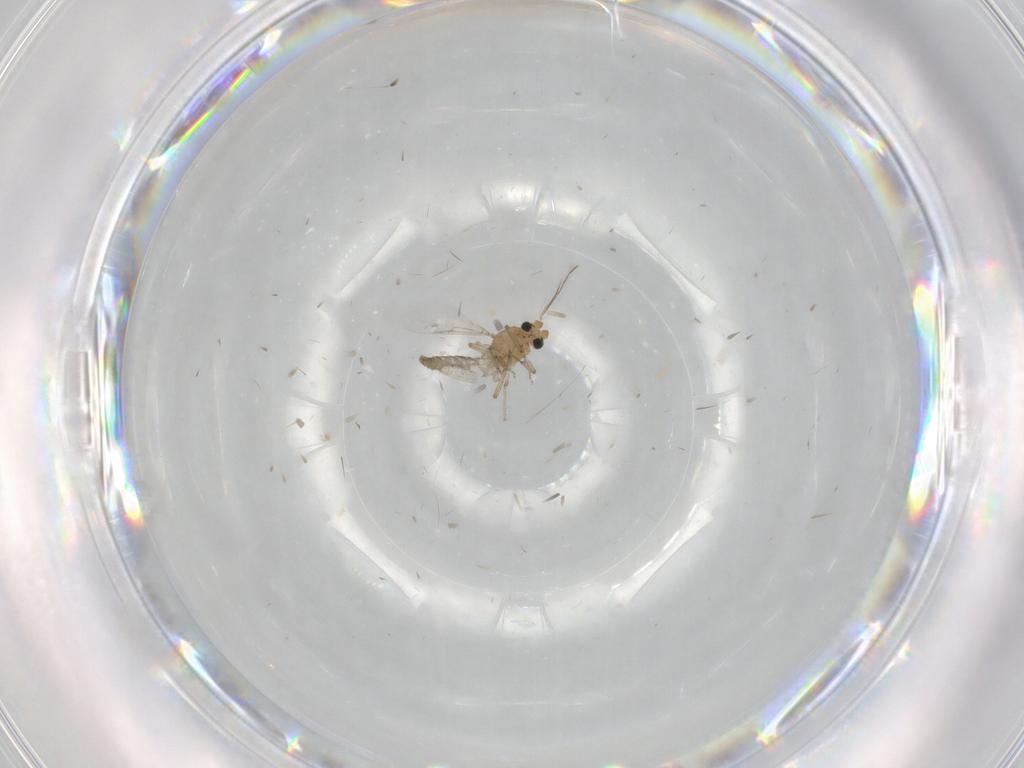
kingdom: Animalia
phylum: Arthropoda
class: Insecta
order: Diptera
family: Cecidomyiidae
